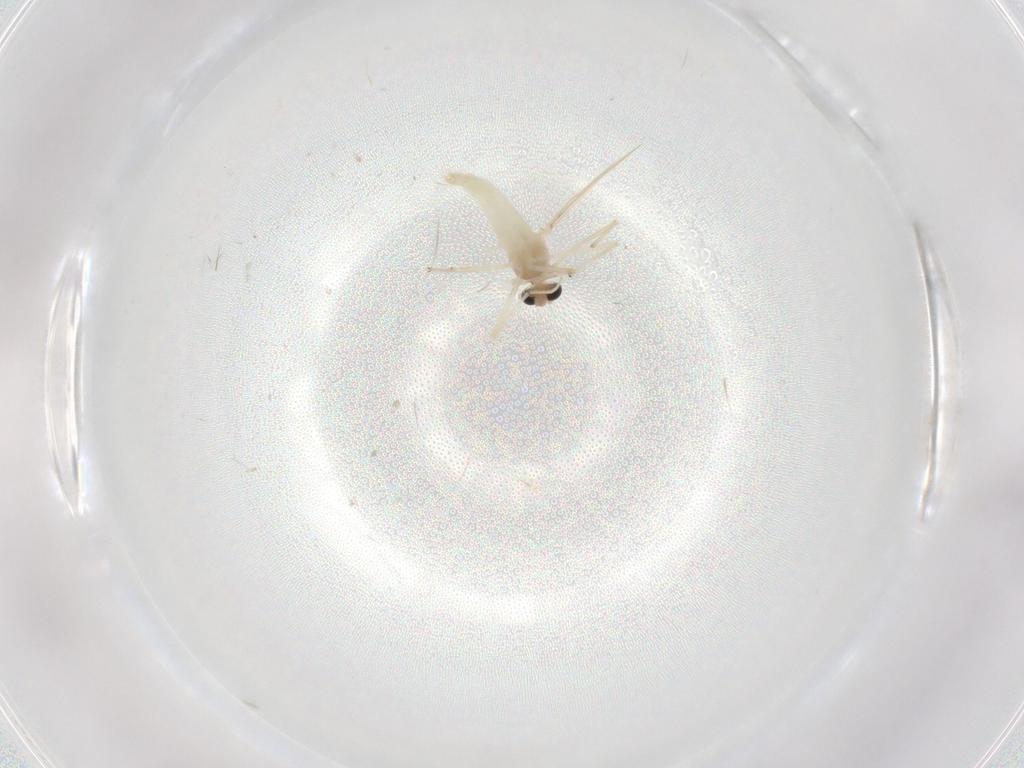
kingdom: Animalia
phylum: Arthropoda
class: Insecta
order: Diptera
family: Chironomidae
